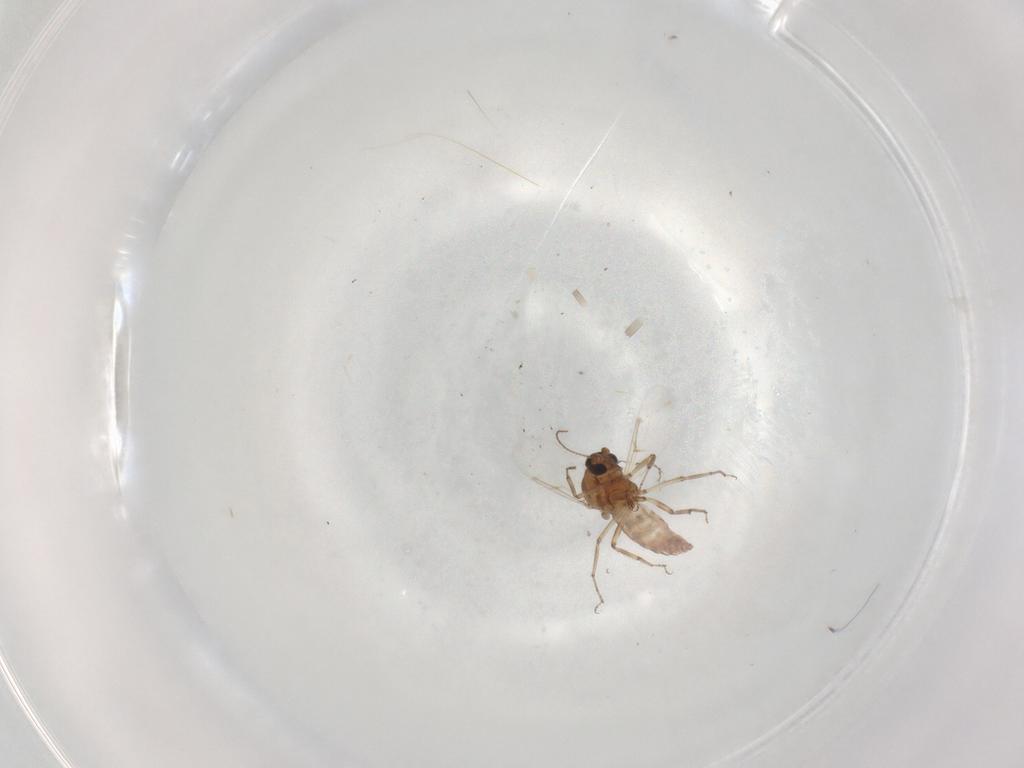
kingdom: Animalia
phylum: Arthropoda
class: Insecta
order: Diptera
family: Ceratopogonidae
